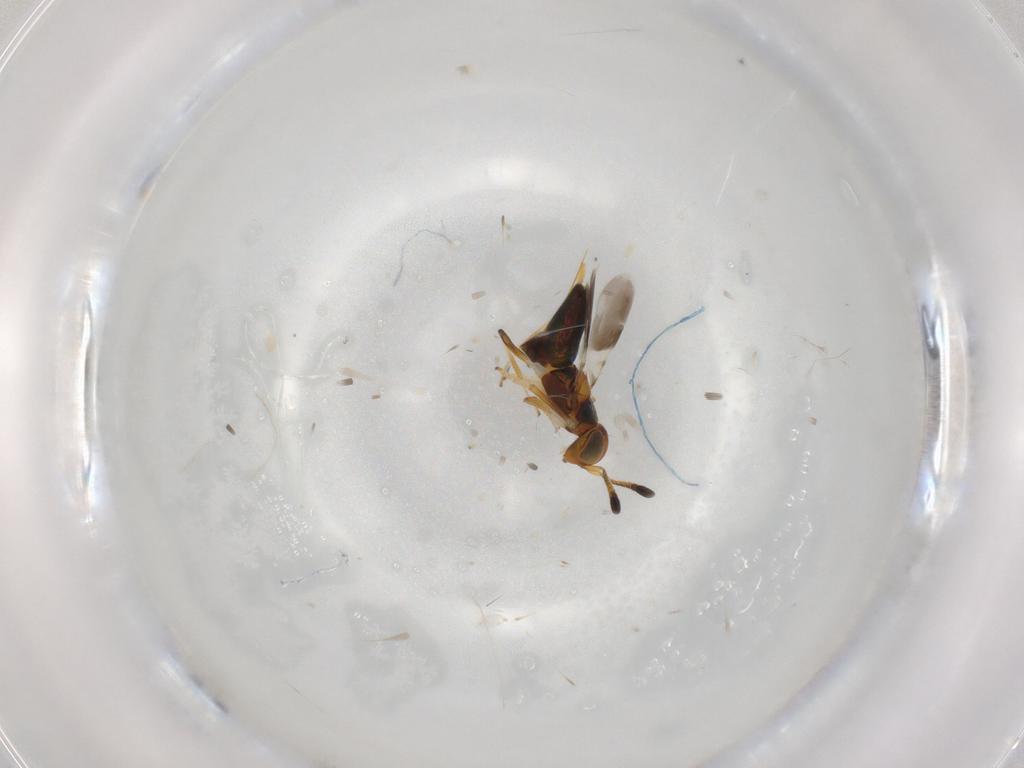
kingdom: Animalia
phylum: Arthropoda
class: Insecta
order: Hymenoptera
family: Encyrtidae
